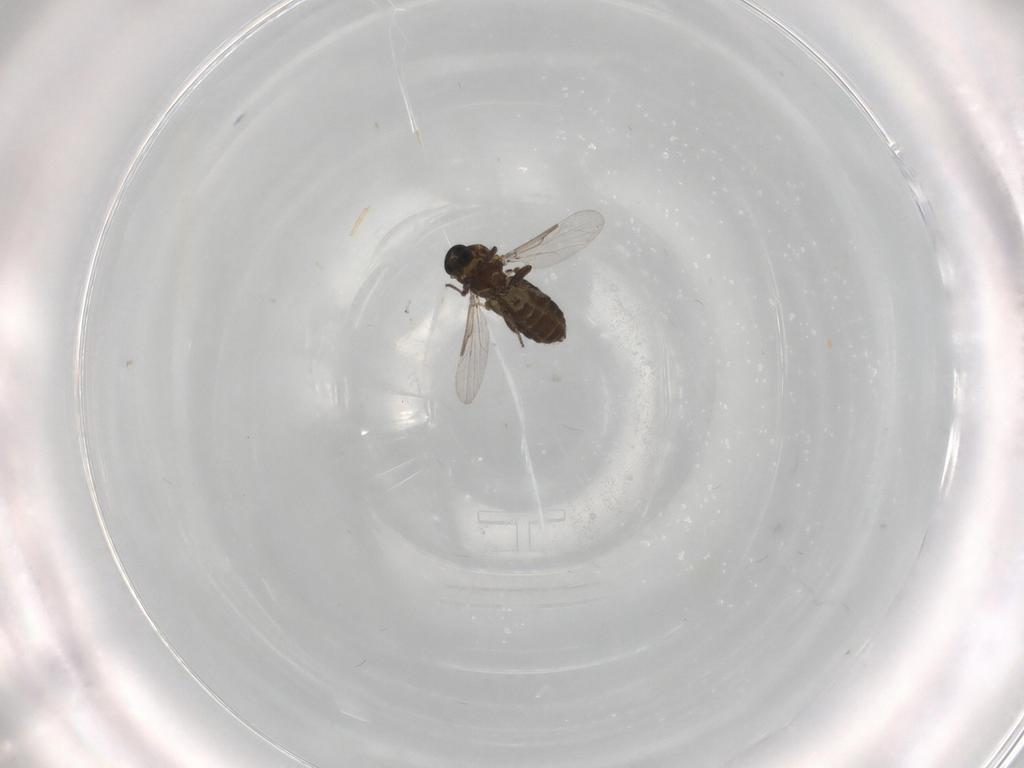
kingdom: Animalia
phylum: Arthropoda
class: Insecta
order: Diptera
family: Ceratopogonidae
